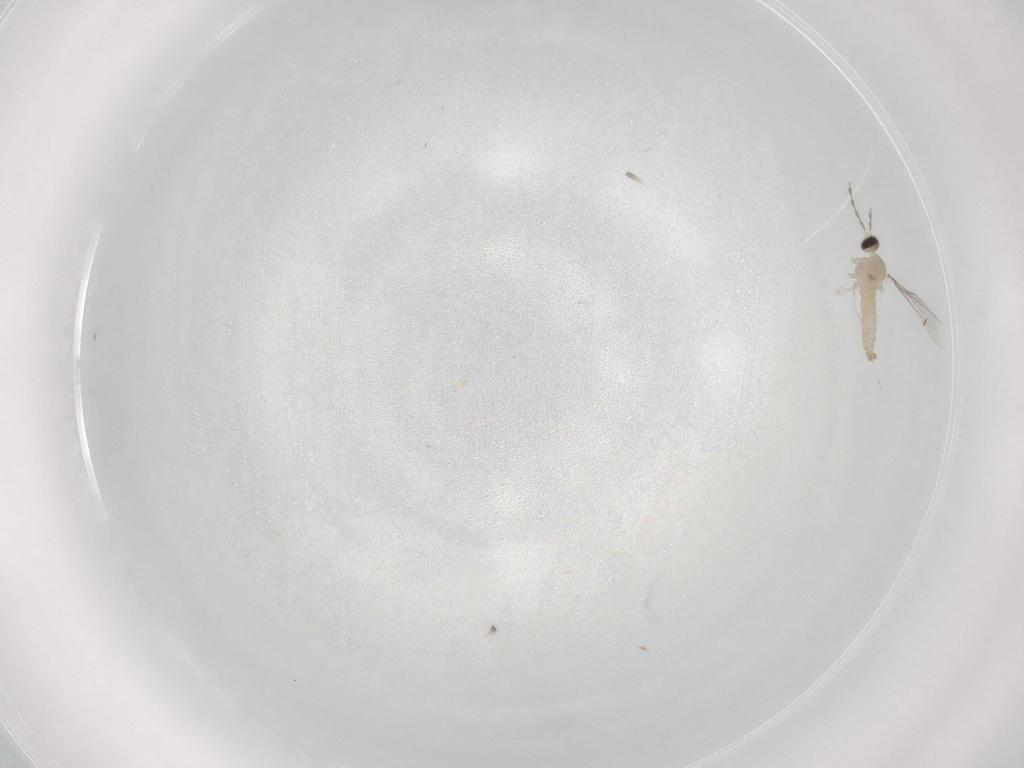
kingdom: Animalia
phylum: Arthropoda
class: Insecta
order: Diptera
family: Cecidomyiidae
